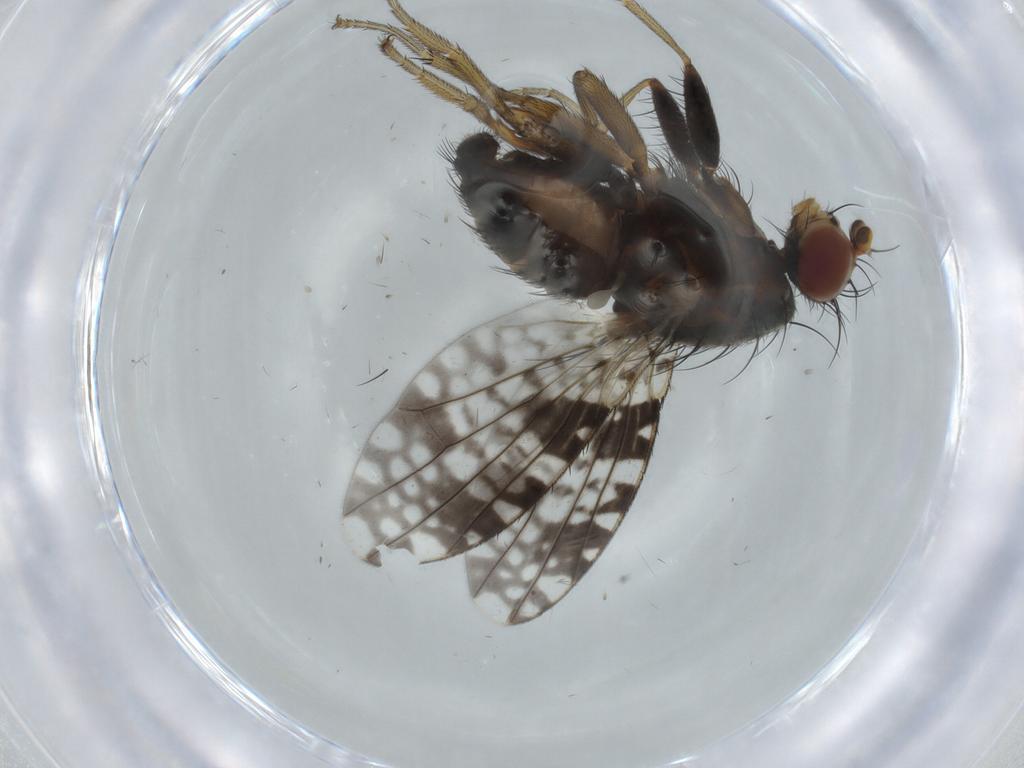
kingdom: Animalia
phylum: Arthropoda
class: Insecta
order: Diptera
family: Tephritidae
